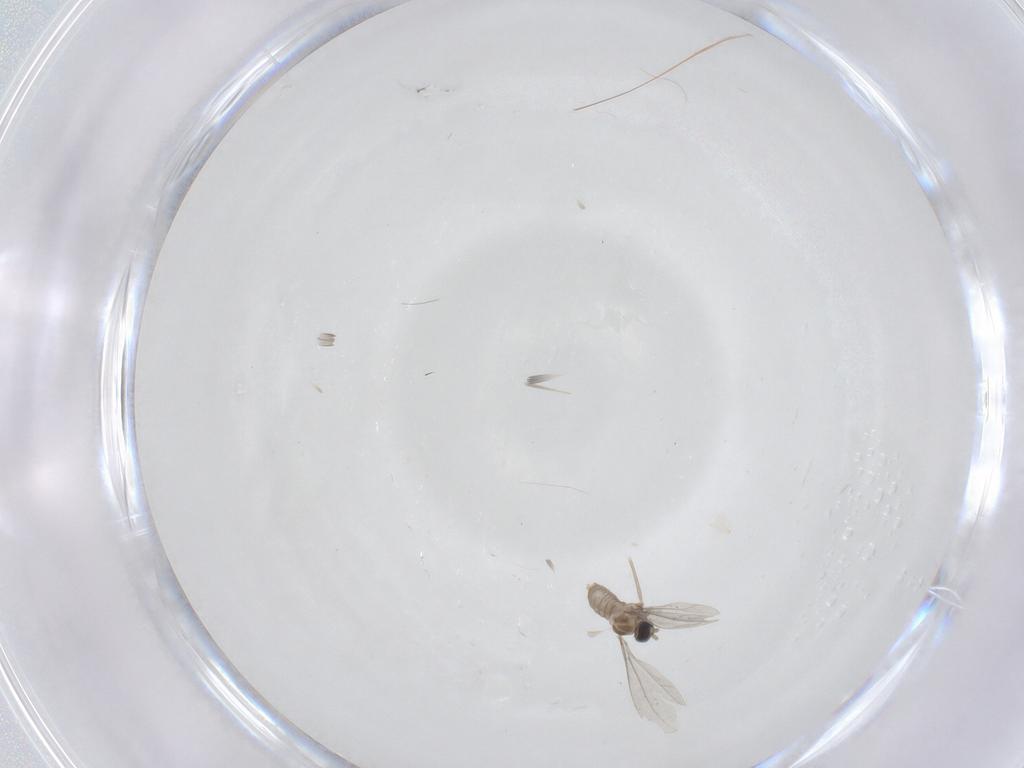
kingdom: Animalia
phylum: Arthropoda
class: Insecta
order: Diptera
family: Cecidomyiidae
